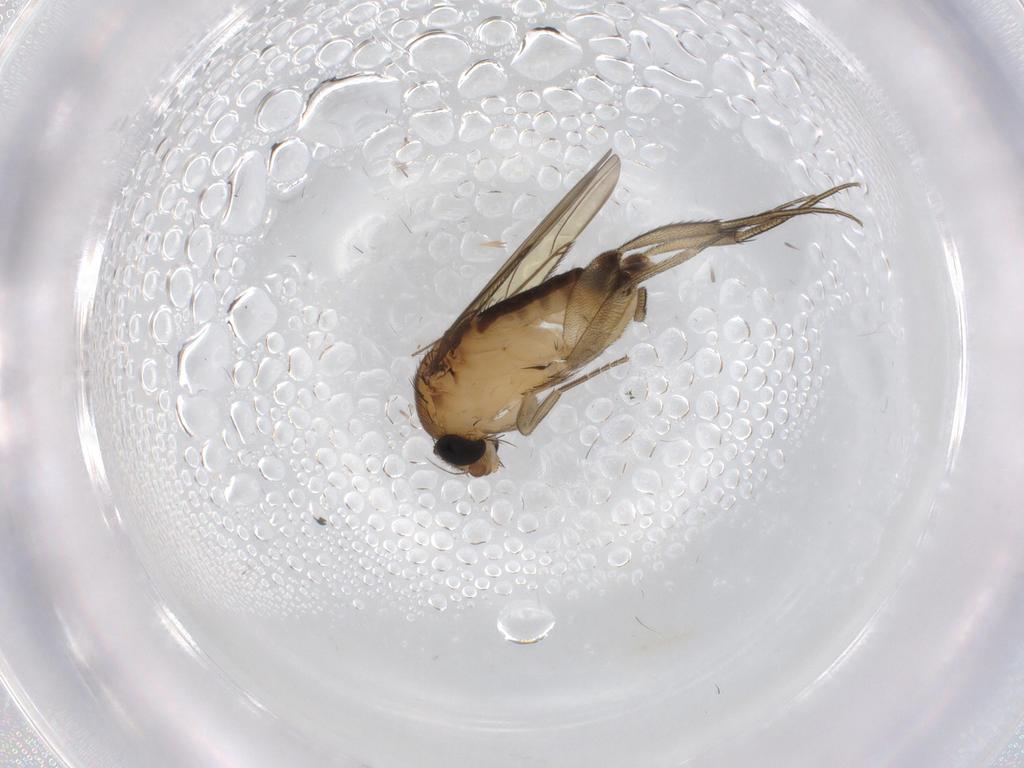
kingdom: Animalia
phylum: Arthropoda
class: Insecta
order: Diptera
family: Phoridae
